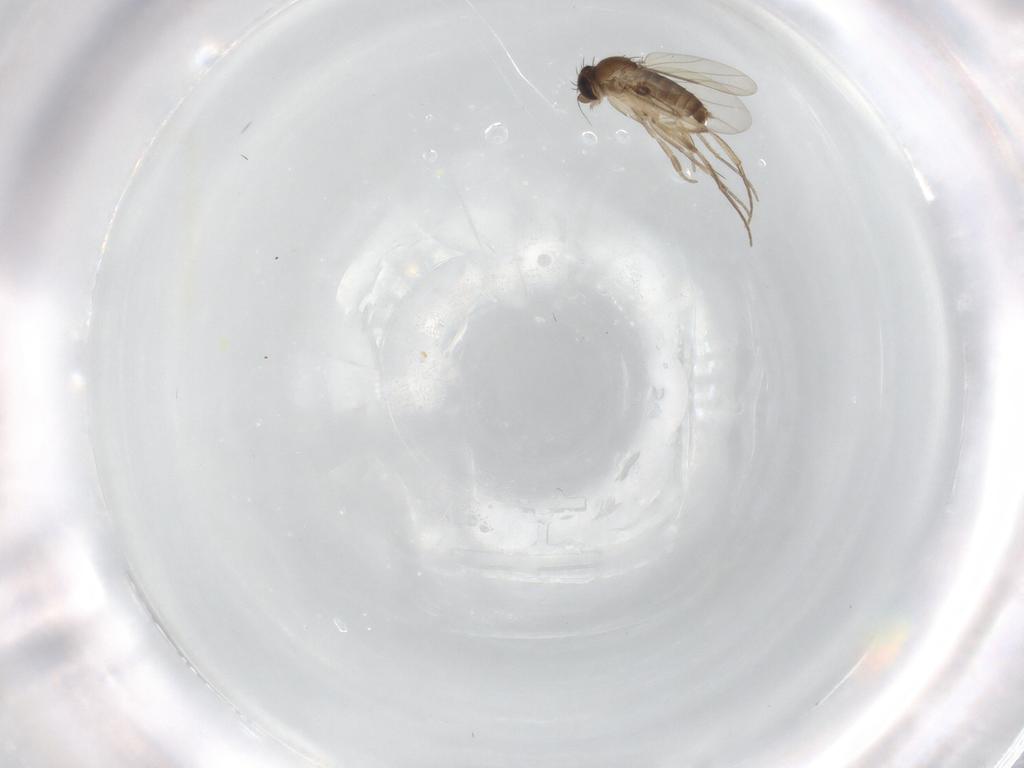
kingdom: Animalia
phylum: Arthropoda
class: Insecta
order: Diptera
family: Phoridae
